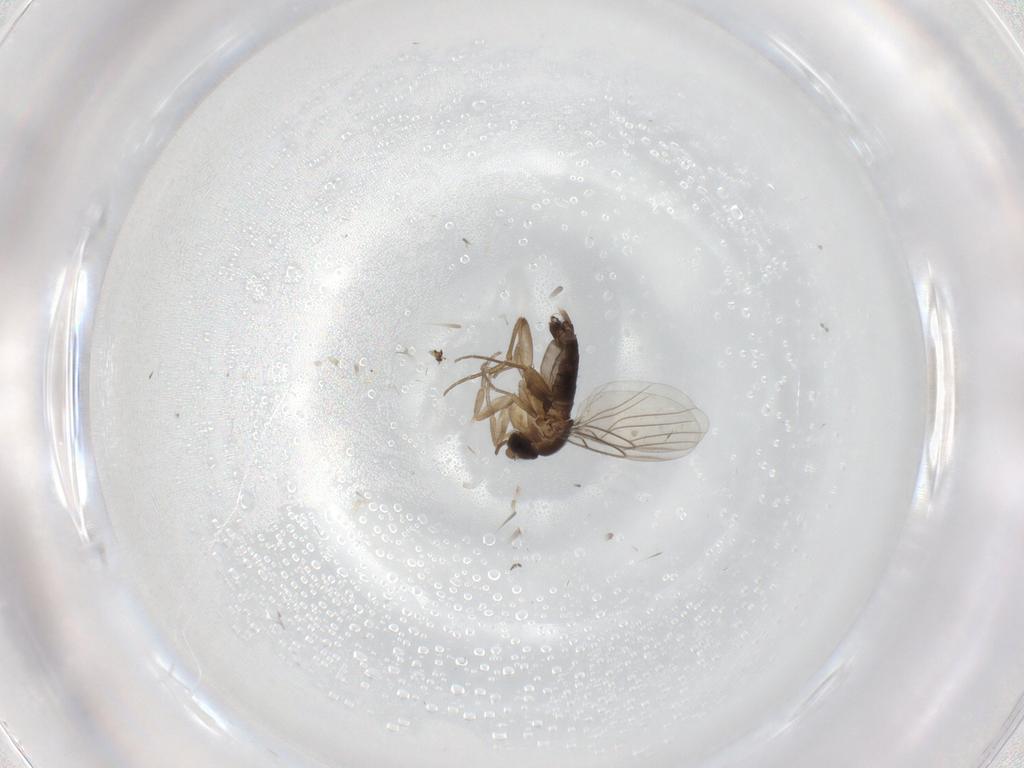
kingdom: Animalia
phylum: Arthropoda
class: Insecta
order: Diptera
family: Phoridae
